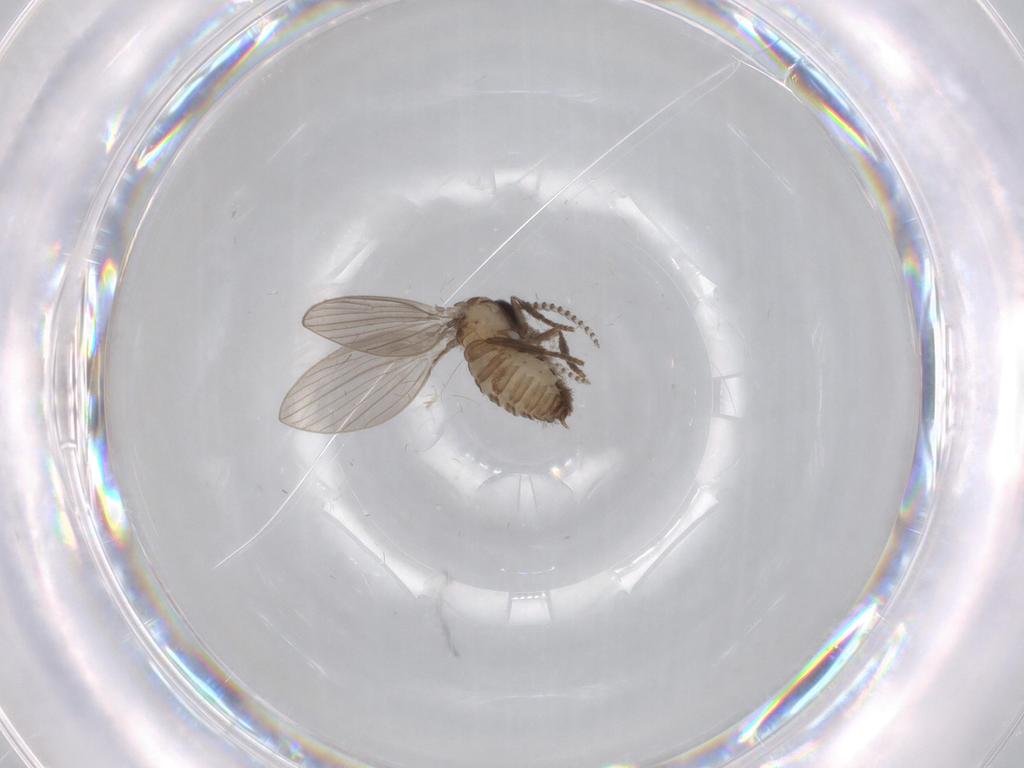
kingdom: Animalia
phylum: Arthropoda
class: Insecta
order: Diptera
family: Psychodidae
